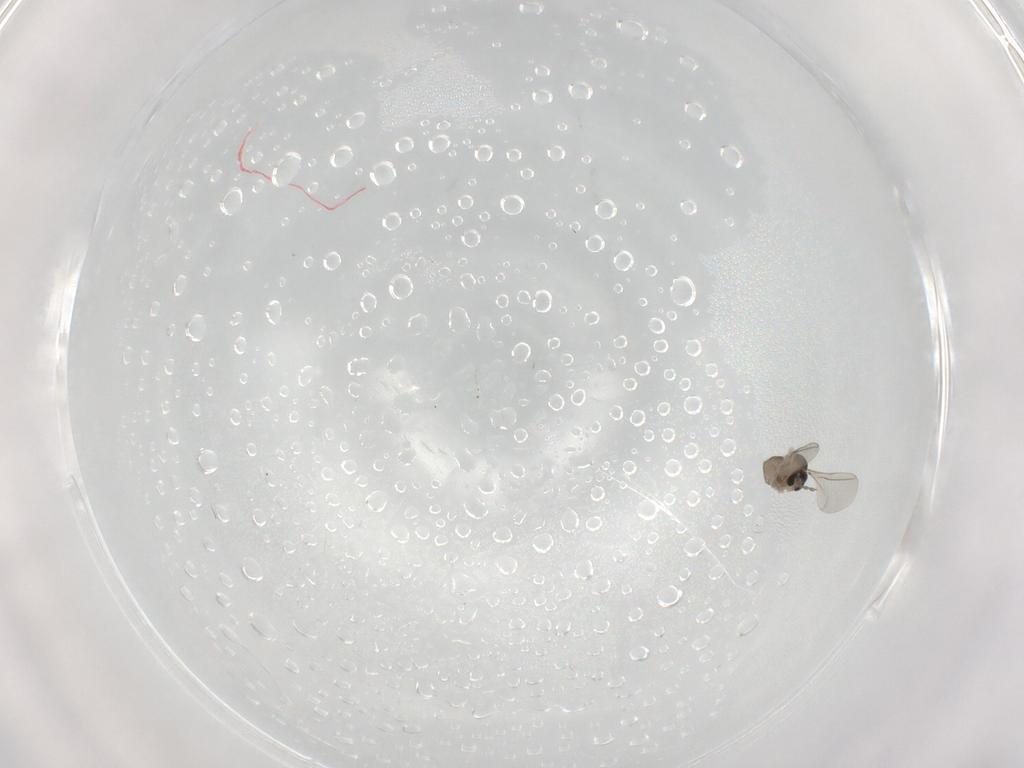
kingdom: Animalia
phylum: Arthropoda
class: Insecta
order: Diptera
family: Cecidomyiidae
